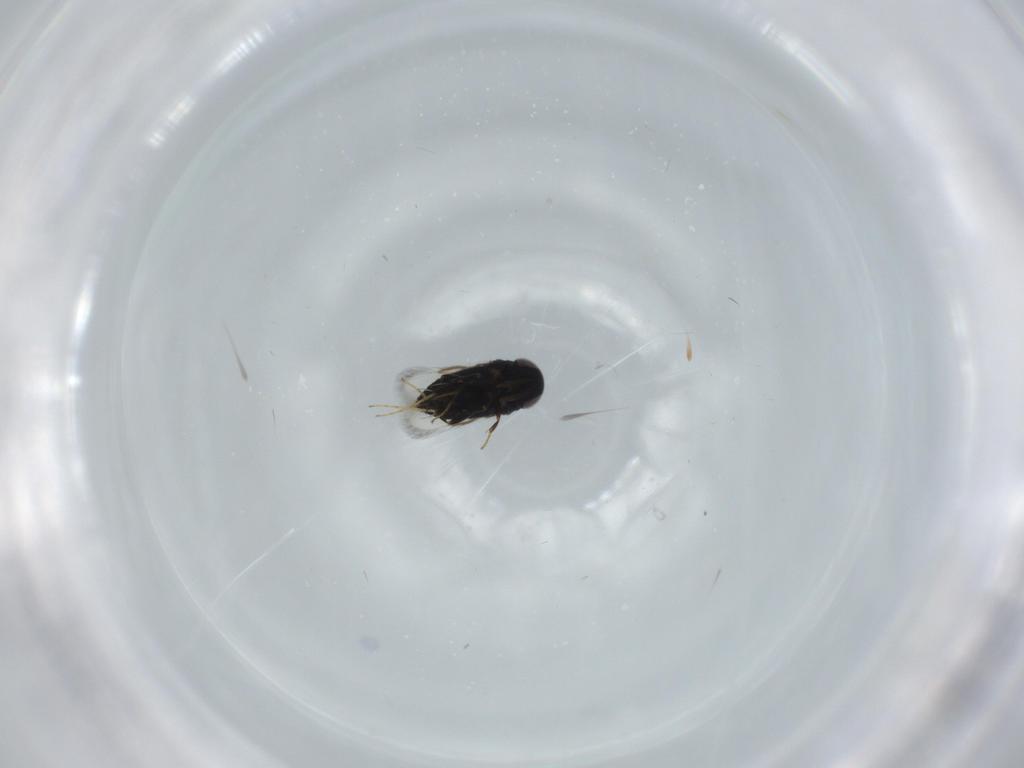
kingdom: Animalia
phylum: Arthropoda
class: Insecta
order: Hymenoptera
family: Signiphoridae
